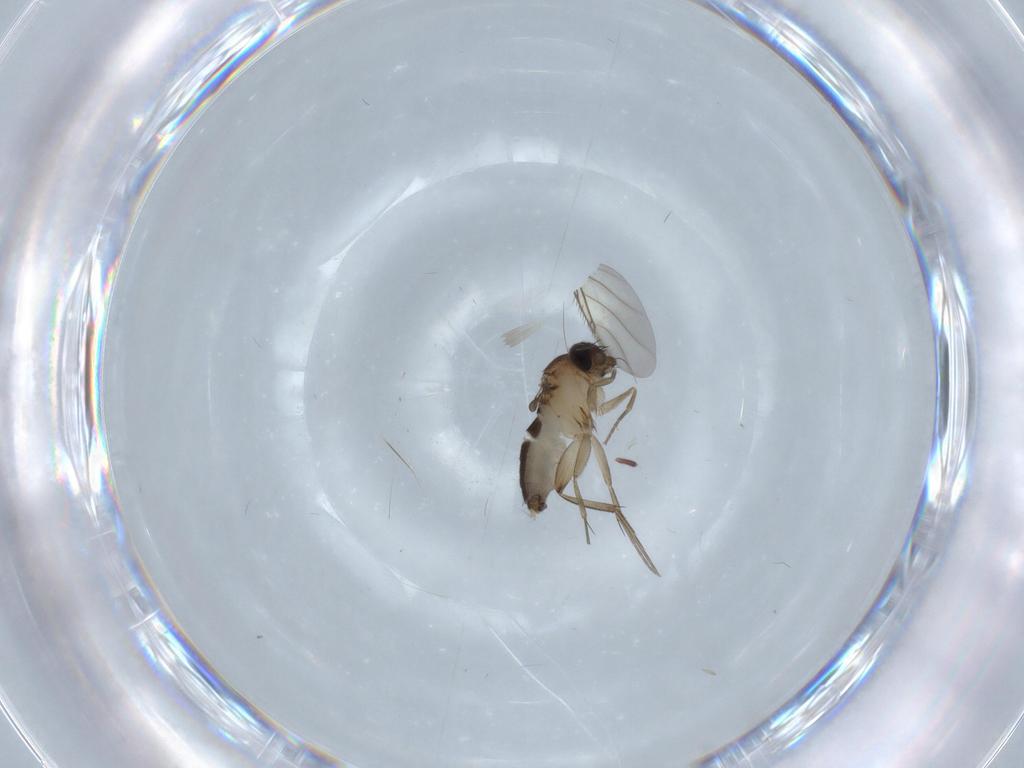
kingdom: Animalia
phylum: Arthropoda
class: Insecta
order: Diptera
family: Phoridae
